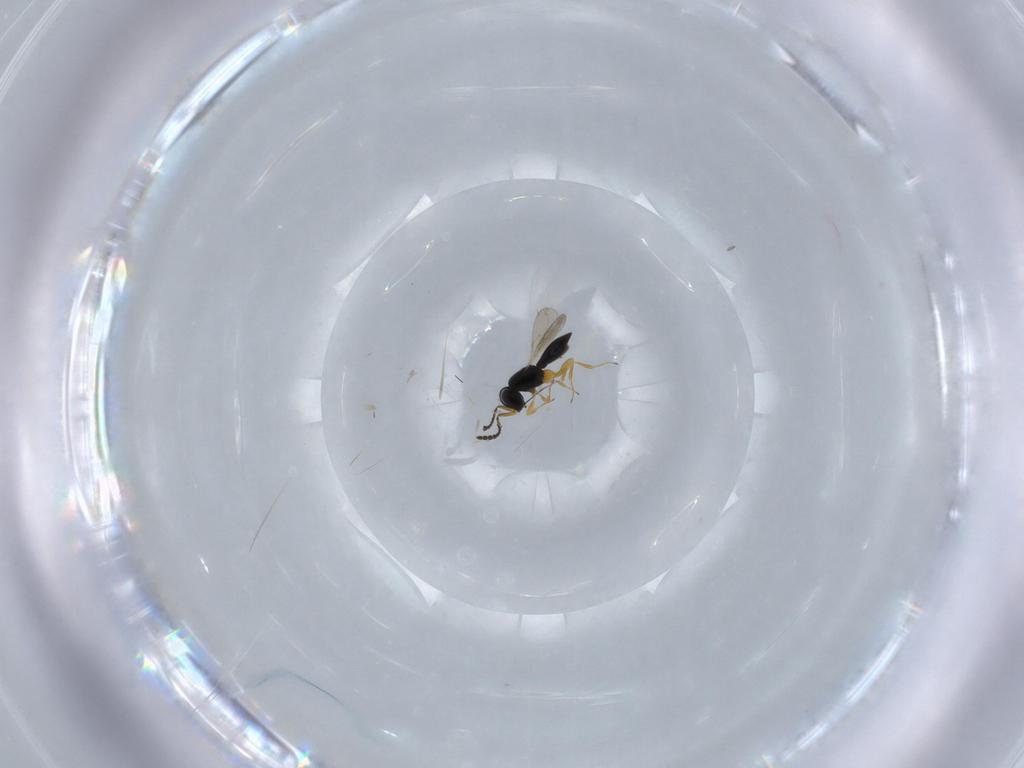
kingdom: Animalia
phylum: Arthropoda
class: Insecta
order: Hymenoptera
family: Scelionidae
